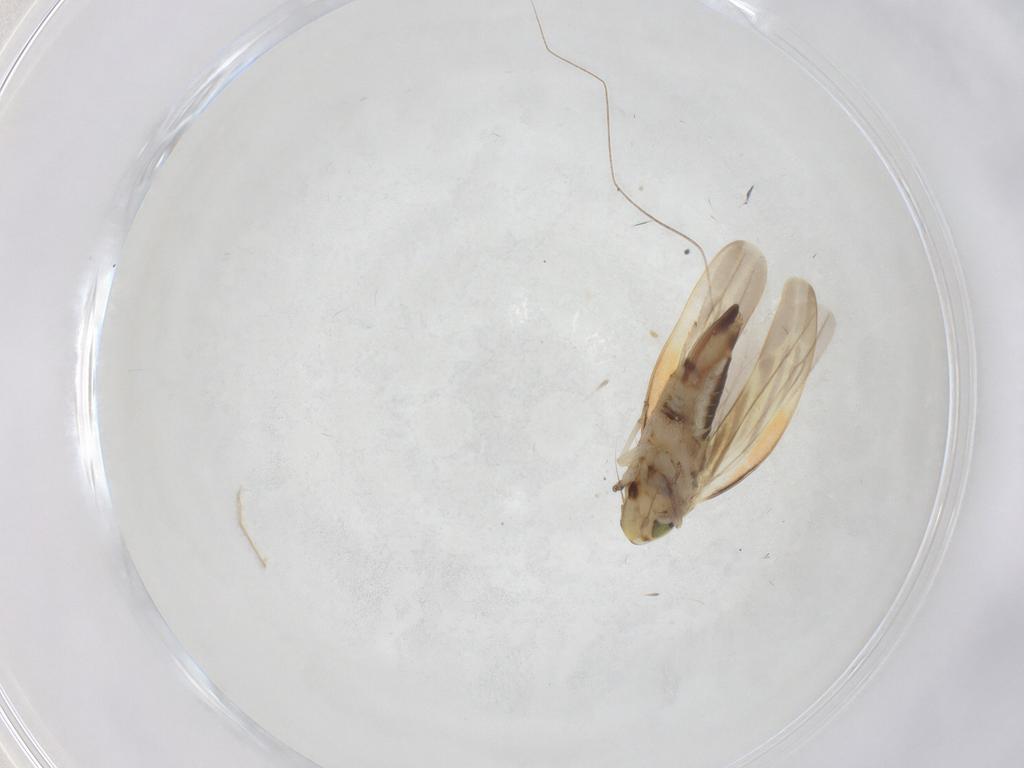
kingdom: Animalia
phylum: Arthropoda
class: Insecta
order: Hemiptera
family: Cicadellidae
